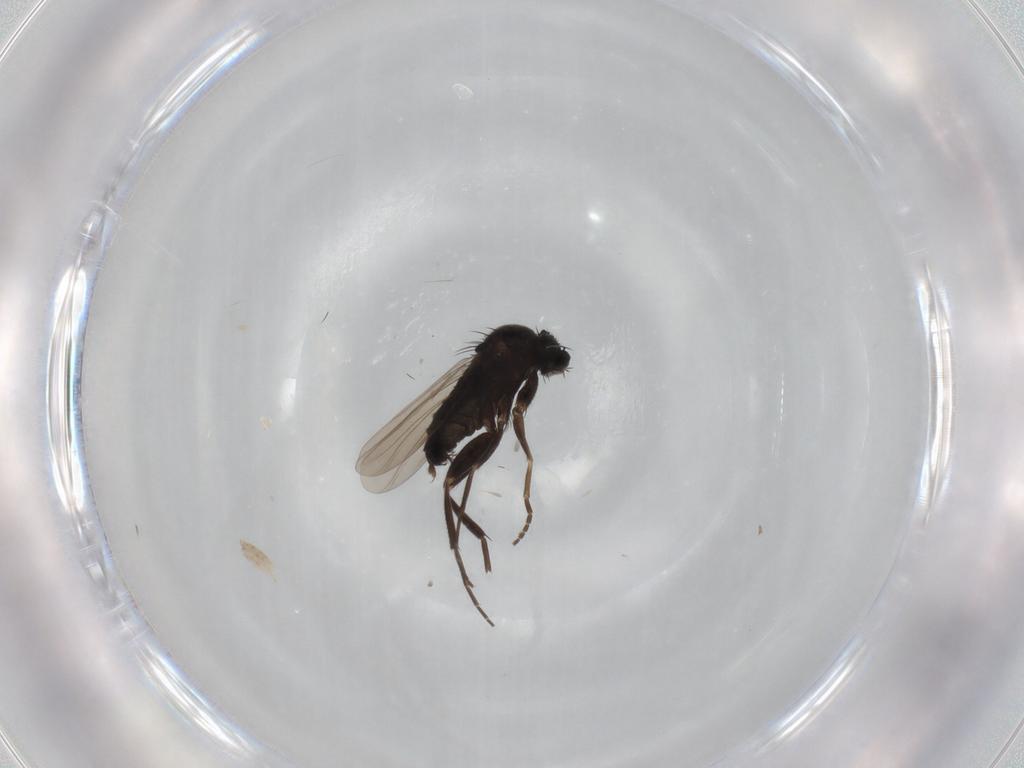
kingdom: Animalia
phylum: Arthropoda
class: Insecta
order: Diptera
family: Phoridae
